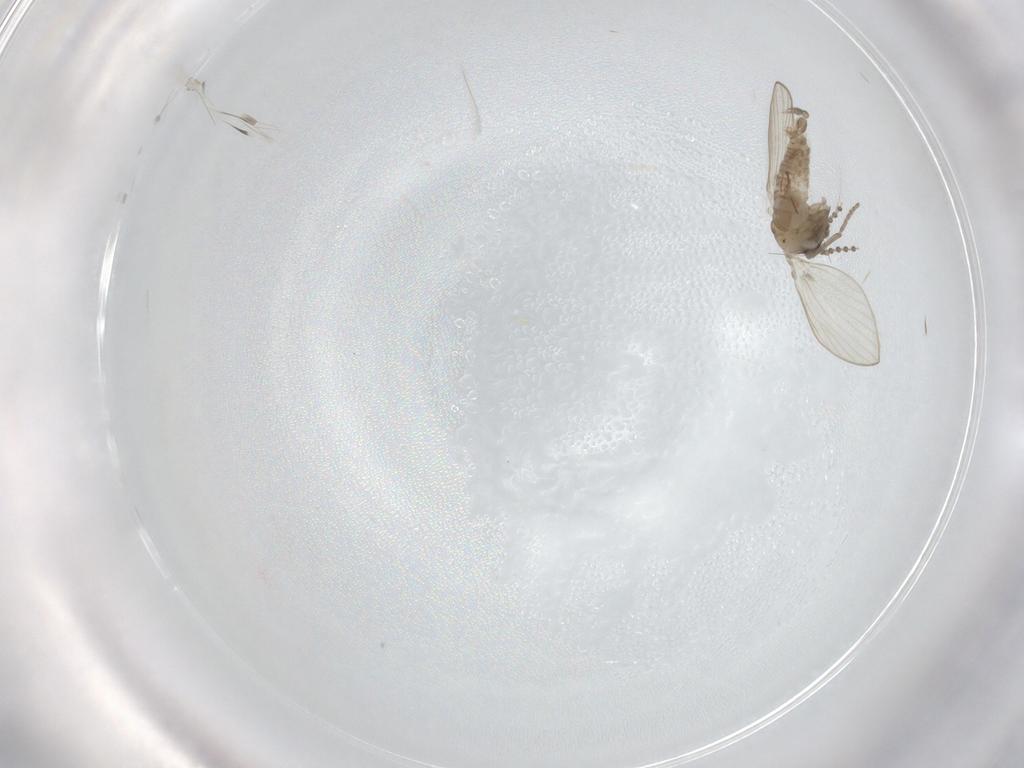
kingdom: Animalia
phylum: Arthropoda
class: Insecta
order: Diptera
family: Psychodidae
